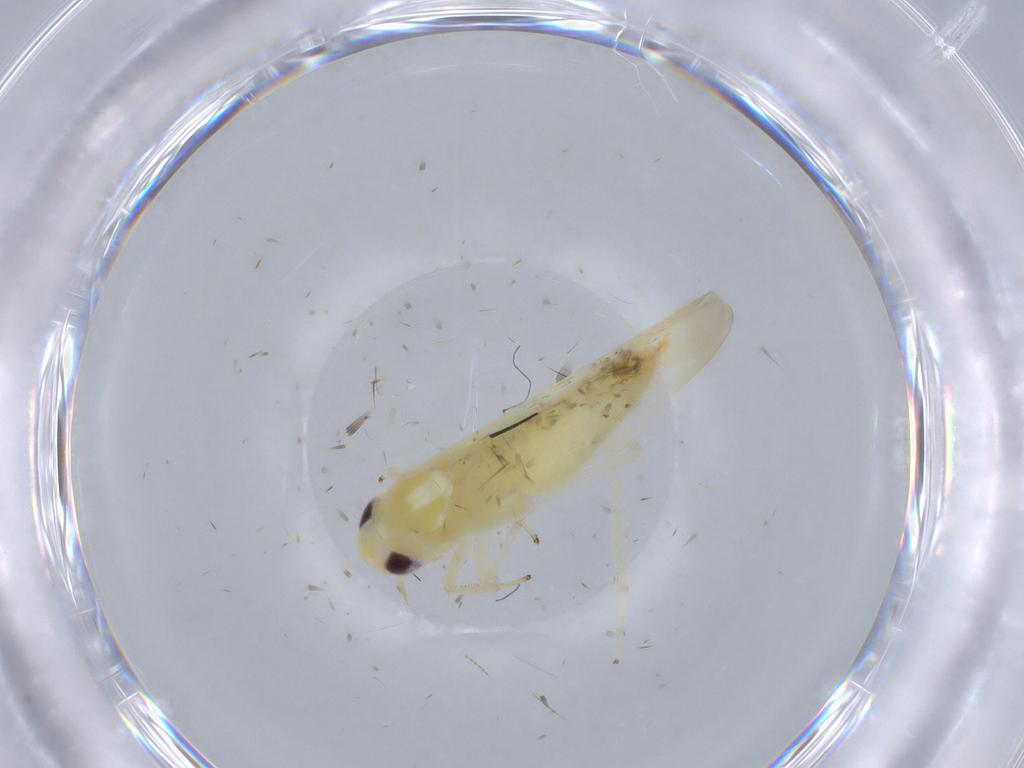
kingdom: Animalia
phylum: Arthropoda
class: Insecta
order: Hemiptera
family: Cicadellidae
